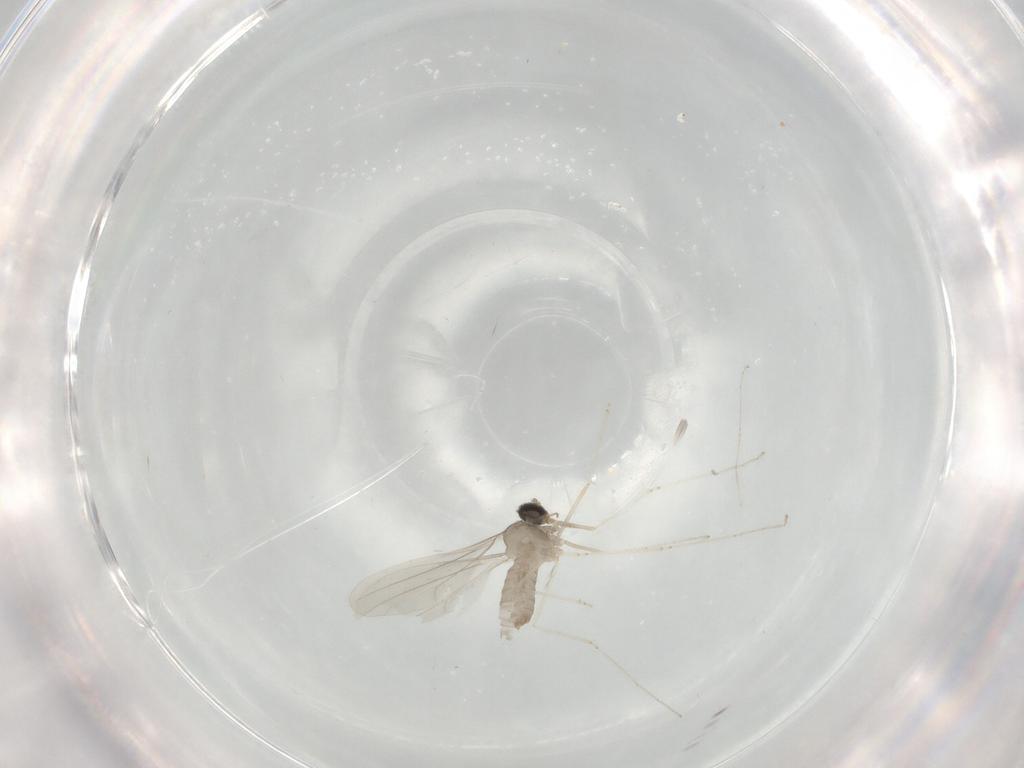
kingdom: Animalia
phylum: Arthropoda
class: Insecta
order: Diptera
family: Cecidomyiidae
